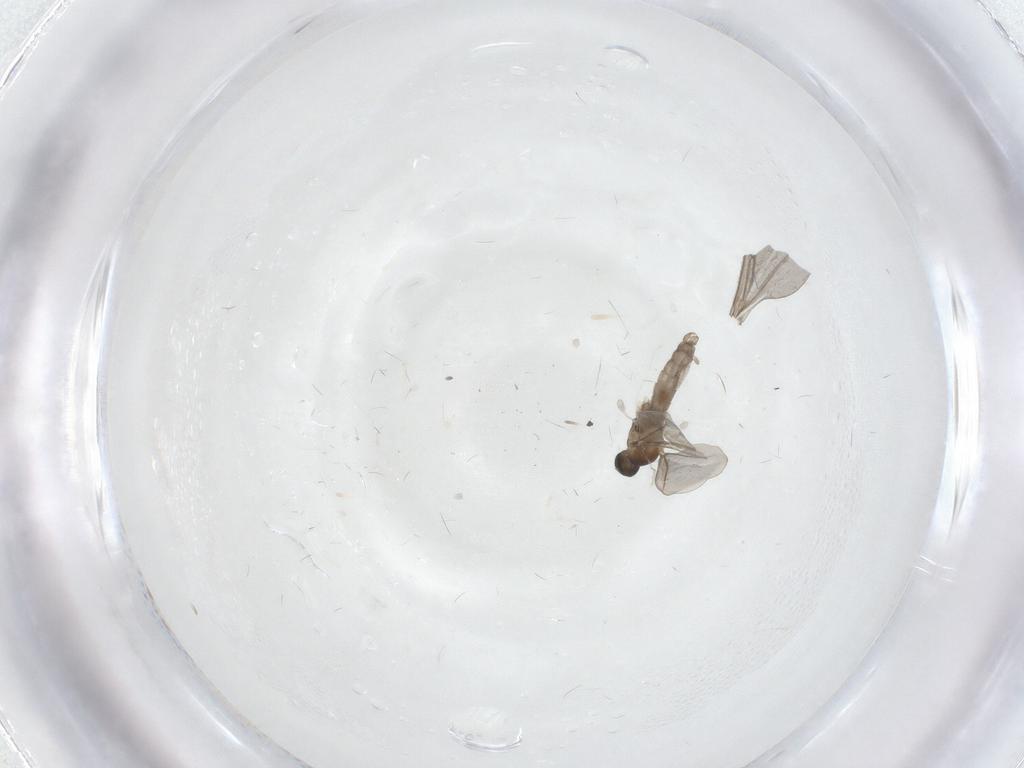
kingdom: Animalia
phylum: Arthropoda
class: Insecta
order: Diptera
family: Cecidomyiidae
